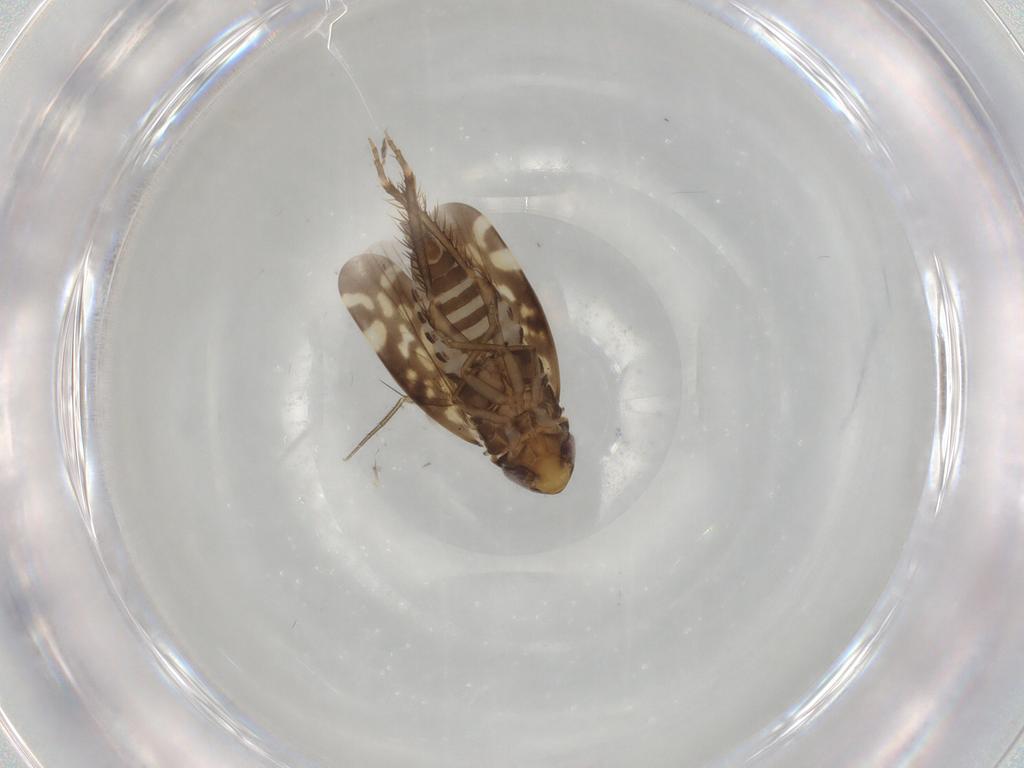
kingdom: Animalia
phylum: Arthropoda
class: Insecta
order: Hemiptera
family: Cicadellidae
